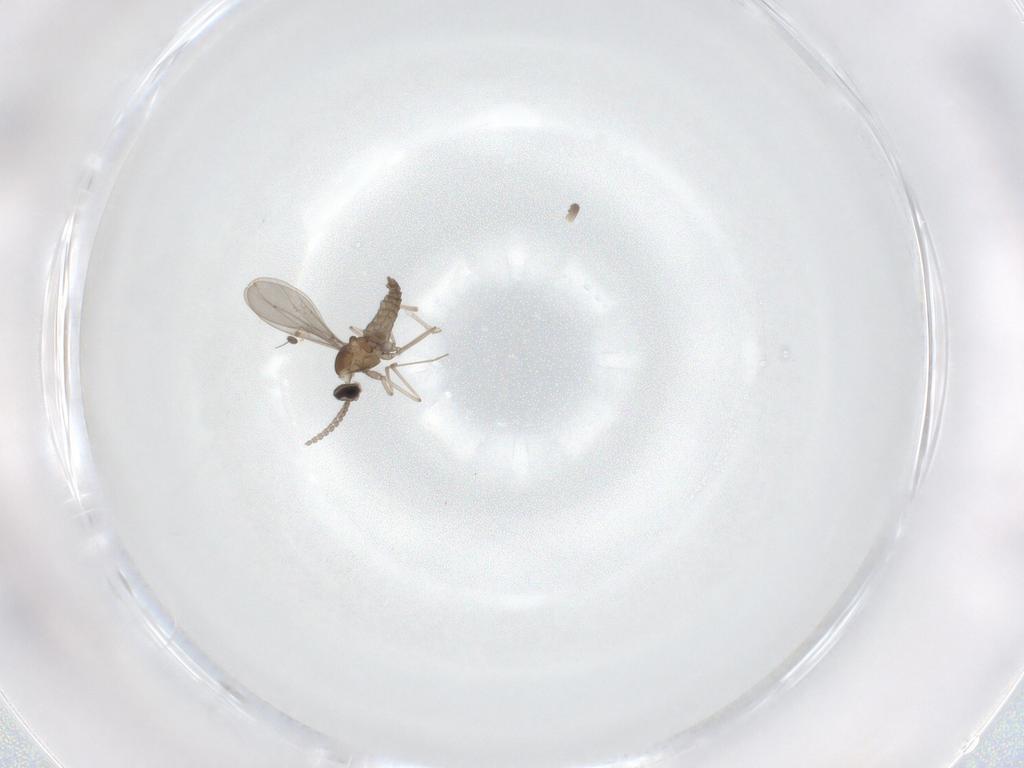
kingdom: Animalia
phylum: Arthropoda
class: Insecta
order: Diptera
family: Dolichopodidae
